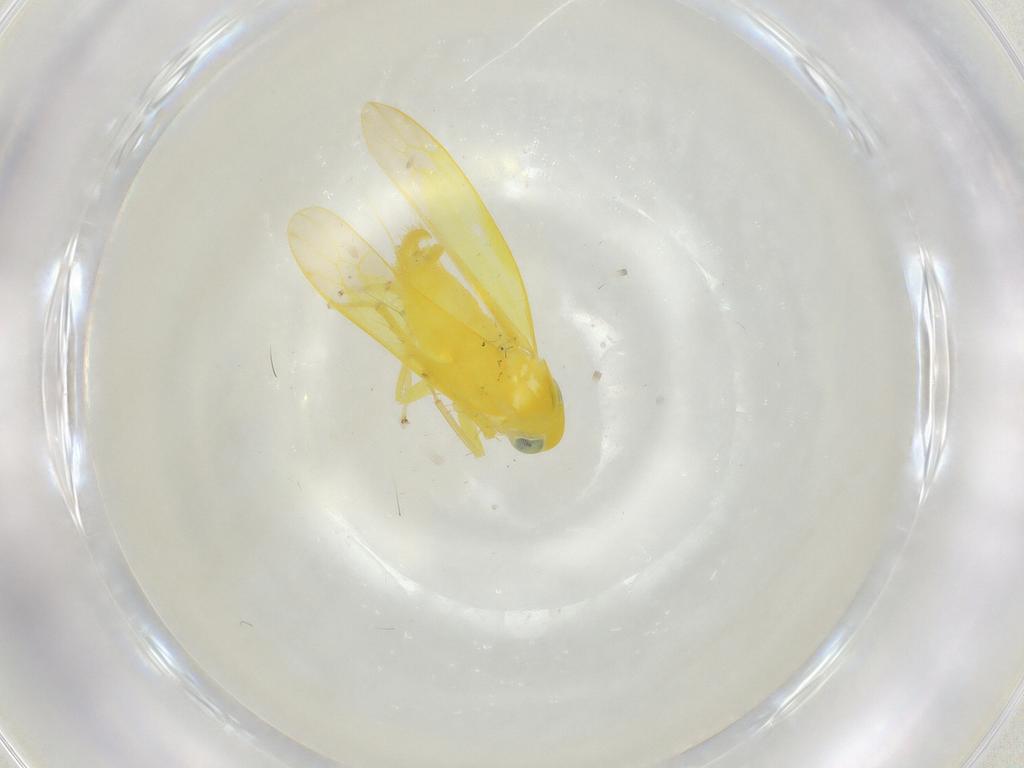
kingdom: Animalia
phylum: Arthropoda
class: Insecta
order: Hemiptera
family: Cicadellidae
